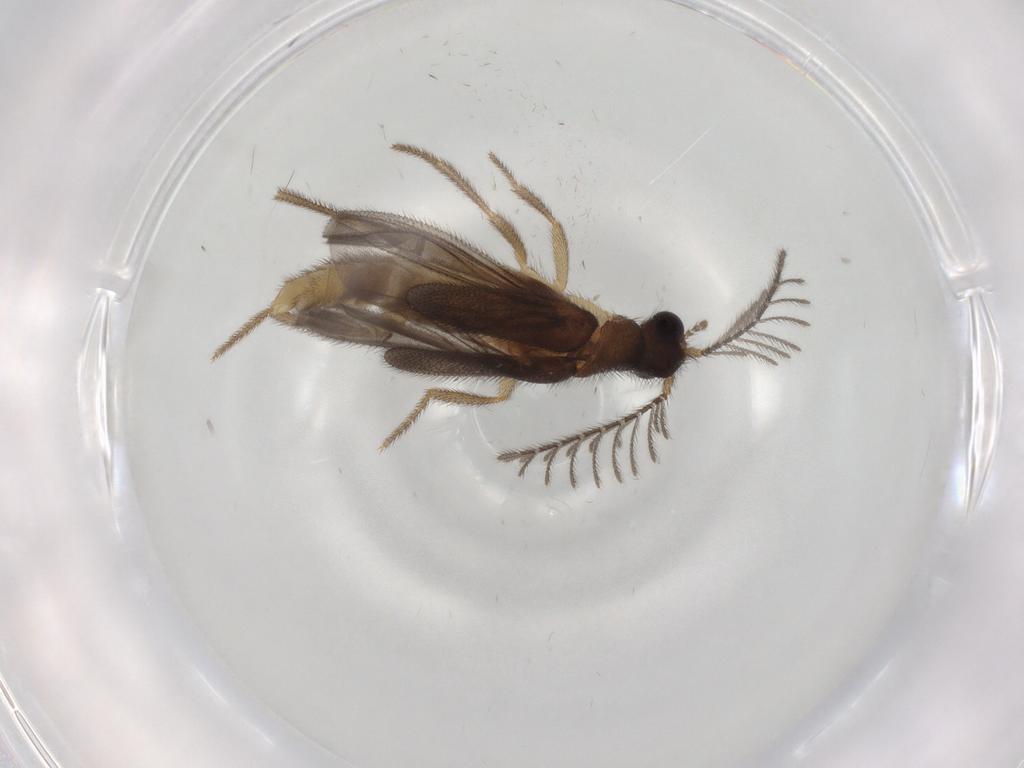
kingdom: Animalia
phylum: Arthropoda
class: Insecta
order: Coleoptera
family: Phengodidae
